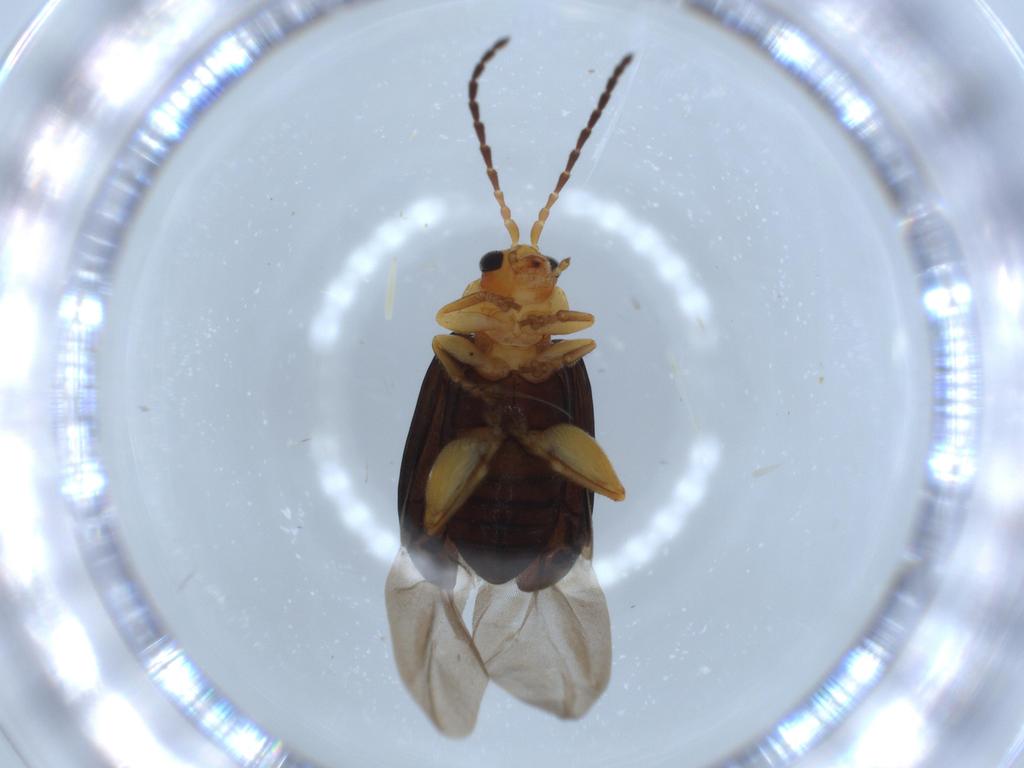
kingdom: Animalia
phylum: Arthropoda
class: Insecta
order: Coleoptera
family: Chrysomelidae
